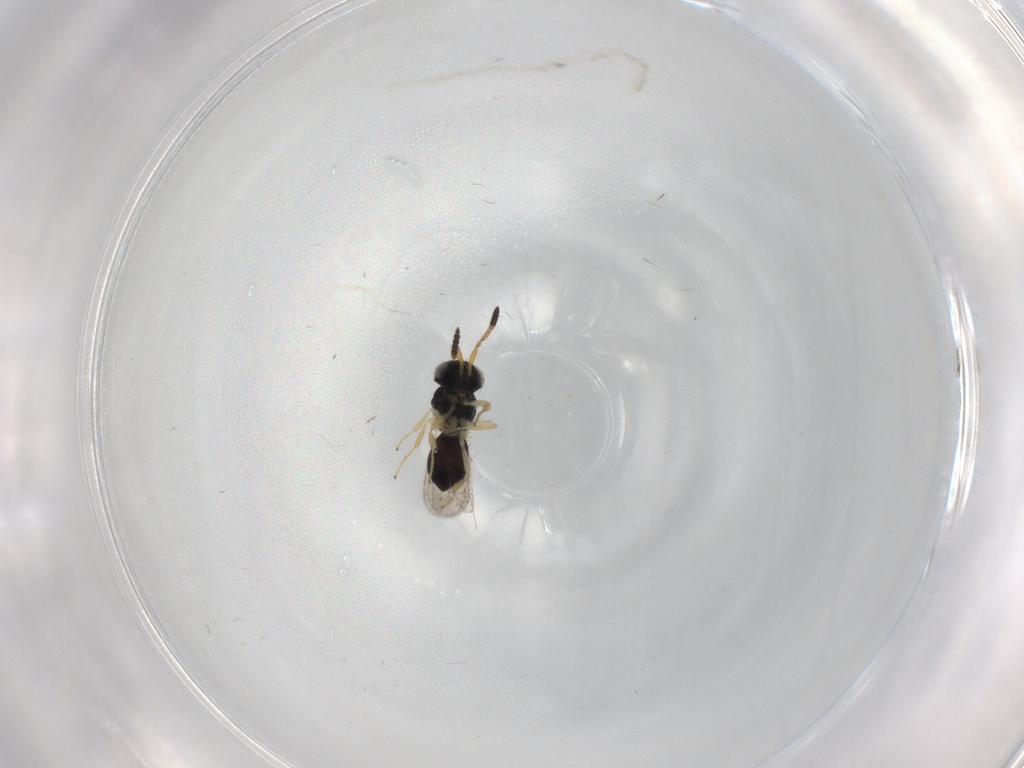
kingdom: Animalia
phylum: Arthropoda
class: Insecta
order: Hymenoptera
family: Scelionidae
